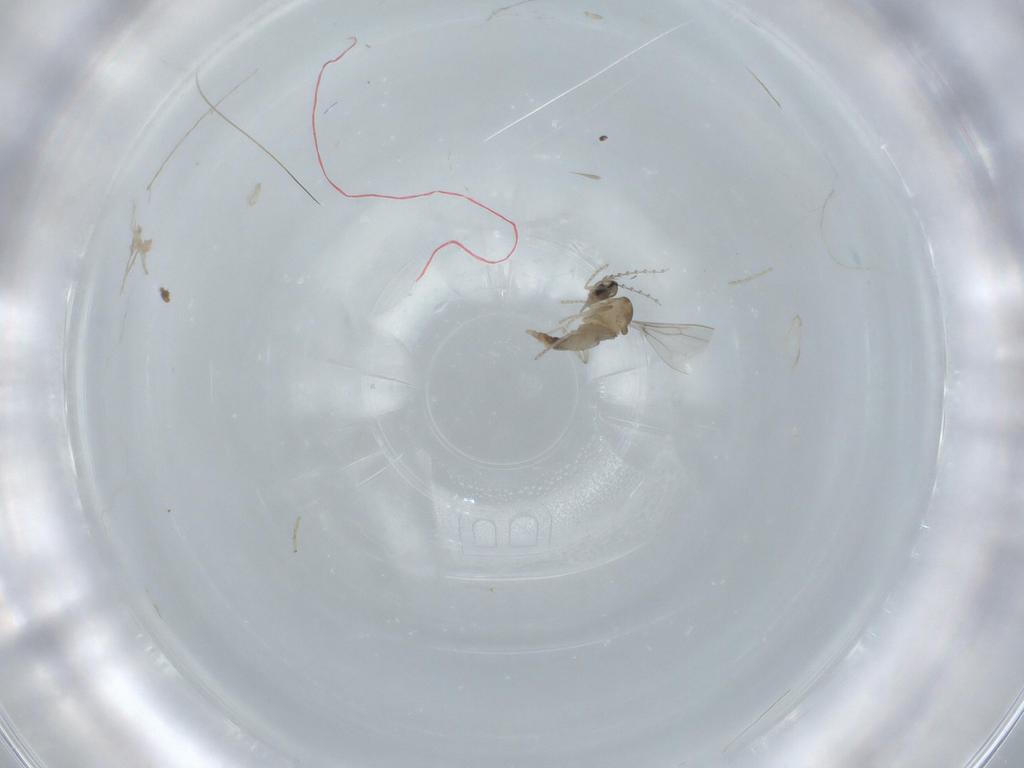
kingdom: Animalia
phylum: Arthropoda
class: Insecta
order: Diptera
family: Cecidomyiidae
